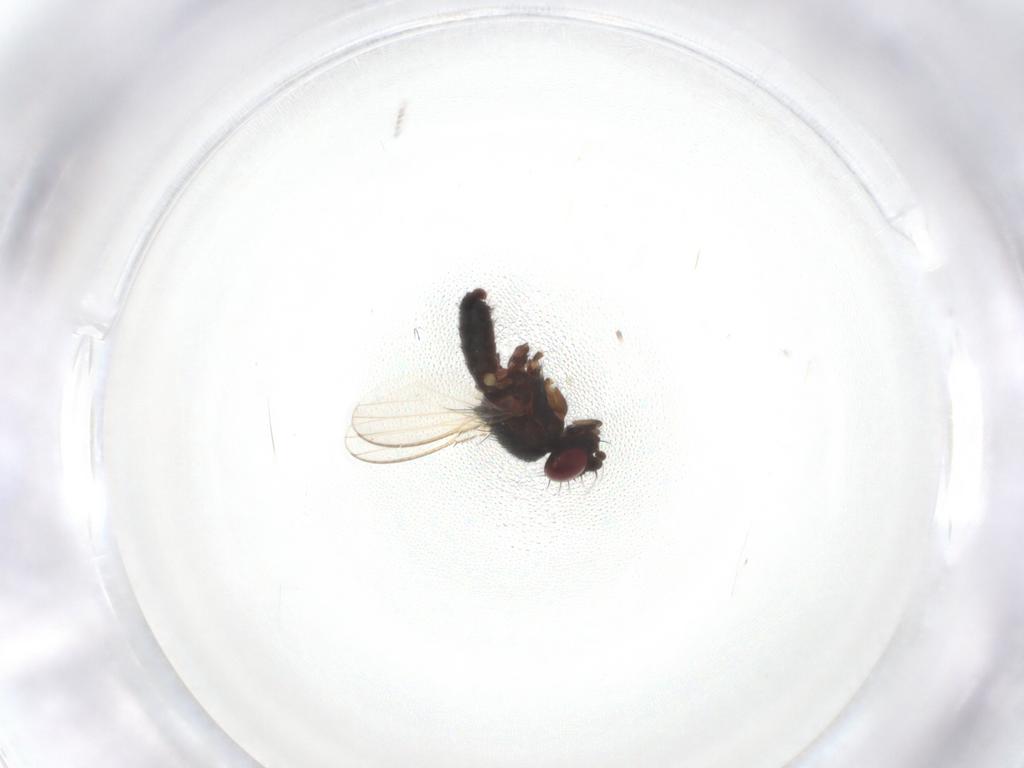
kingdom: Animalia
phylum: Arthropoda
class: Insecta
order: Diptera
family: Milichiidae
